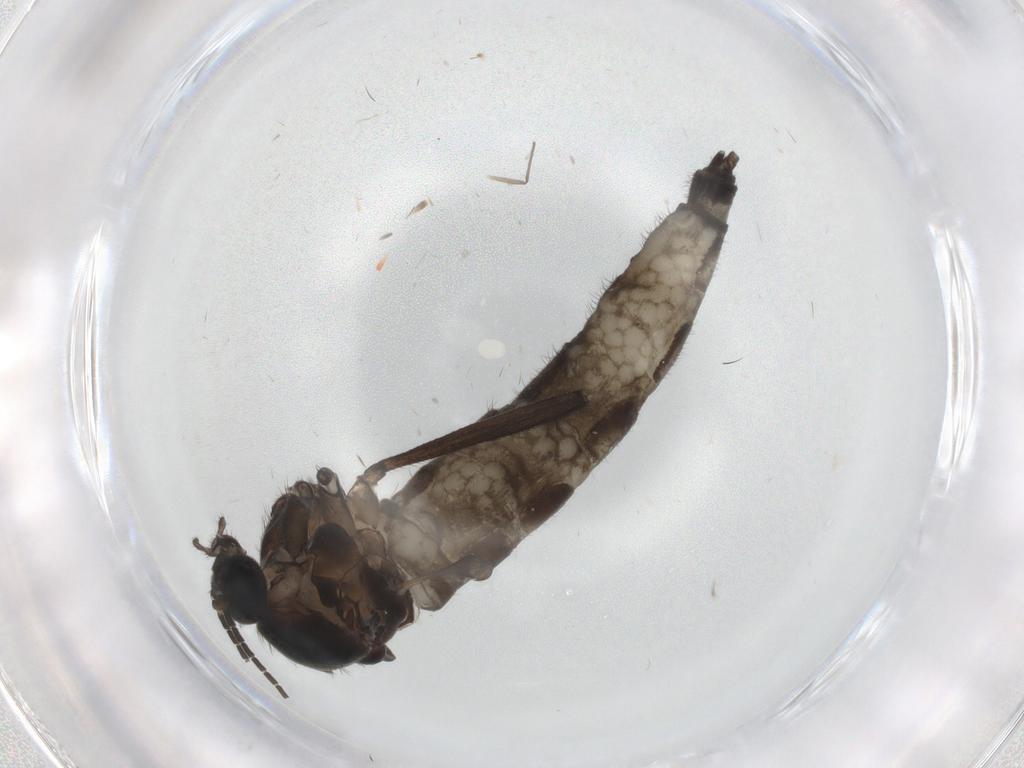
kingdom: Animalia
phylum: Arthropoda
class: Insecta
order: Diptera
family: Sciaridae
